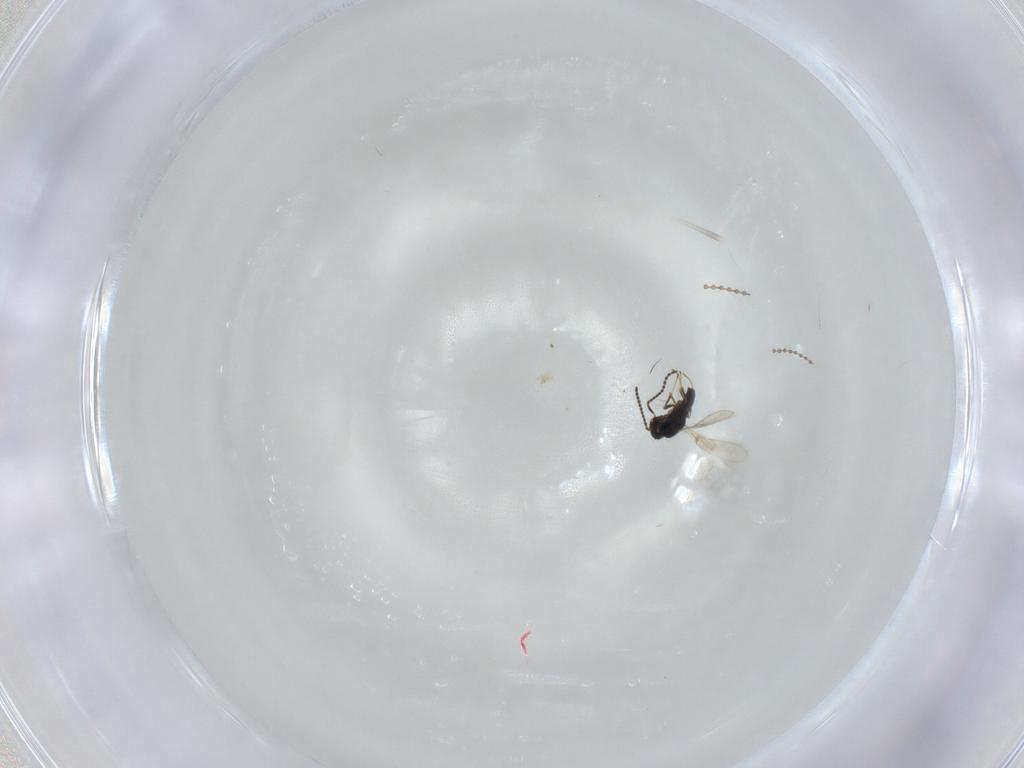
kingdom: Animalia
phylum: Arthropoda
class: Insecta
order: Hymenoptera
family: Scelionidae
